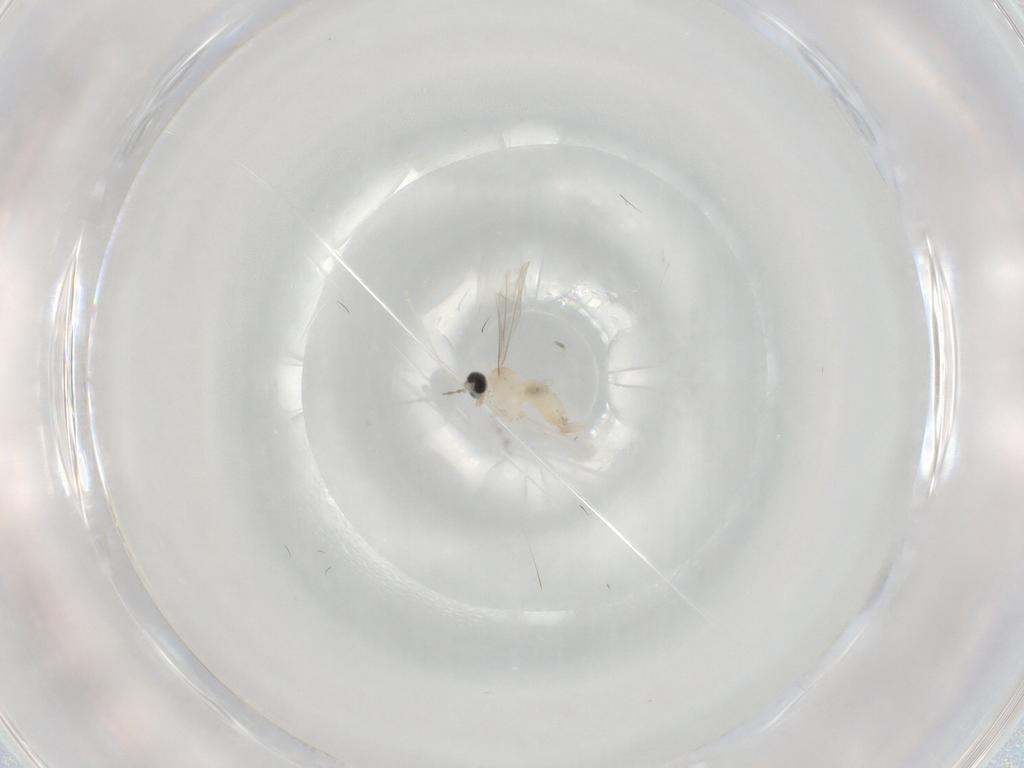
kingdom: Animalia
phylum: Arthropoda
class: Insecta
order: Diptera
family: Cecidomyiidae
